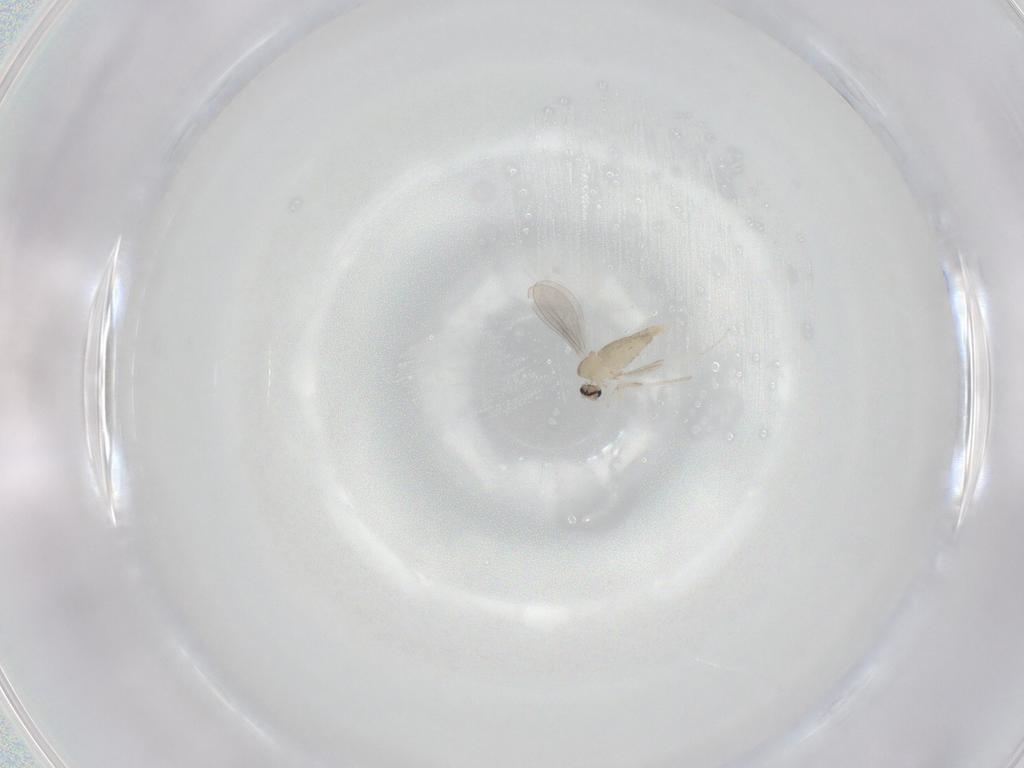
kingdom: Animalia
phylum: Arthropoda
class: Insecta
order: Diptera
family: Cecidomyiidae
